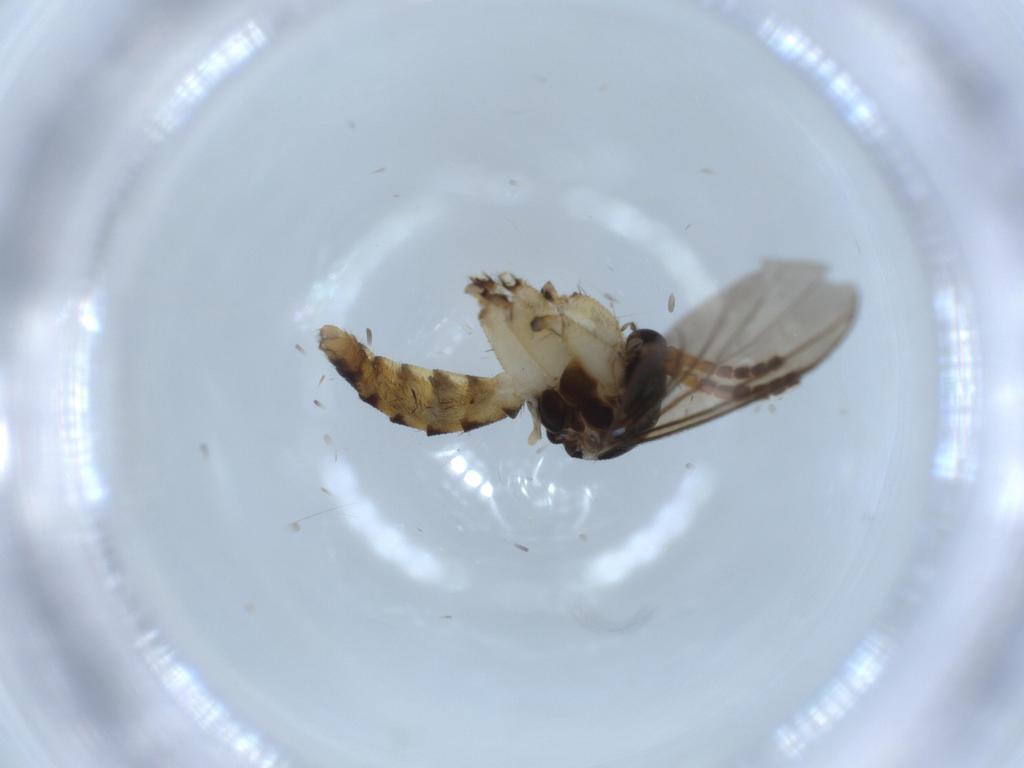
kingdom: Animalia
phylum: Arthropoda
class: Insecta
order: Diptera
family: Mycetophilidae
